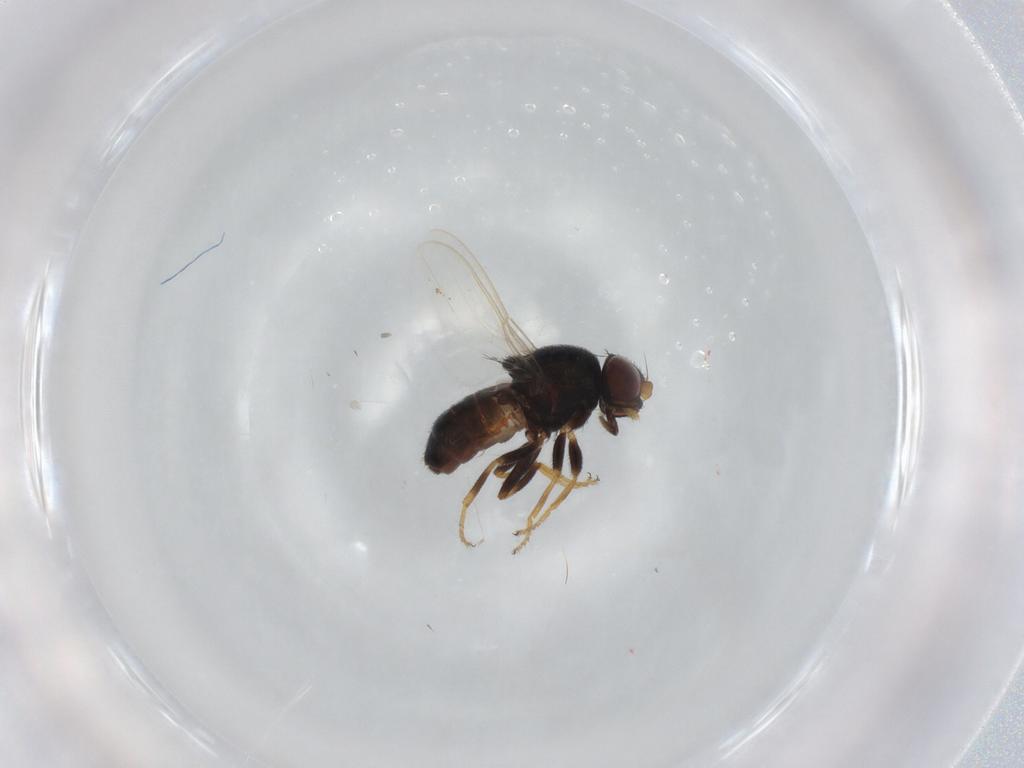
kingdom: Animalia
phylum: Arthropoda
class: Insecta
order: Diptera
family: Chloropidae
